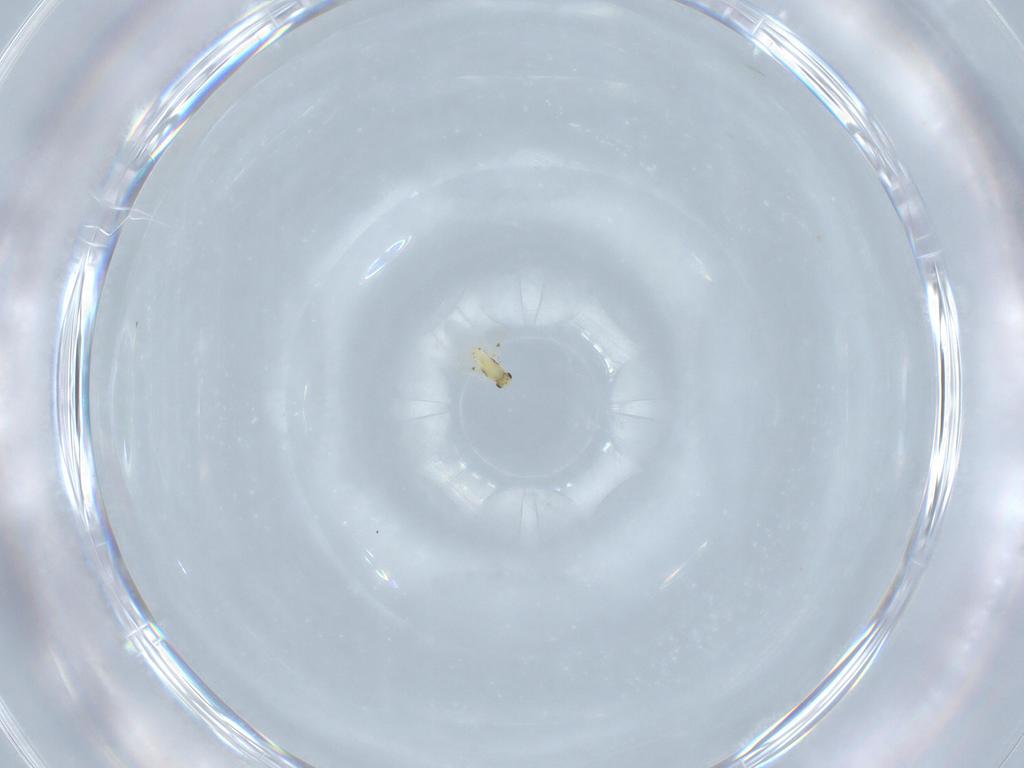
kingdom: Animalia
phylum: Arthropoda
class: Insecta
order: Hymenoptera
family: Trichogrammatidae
